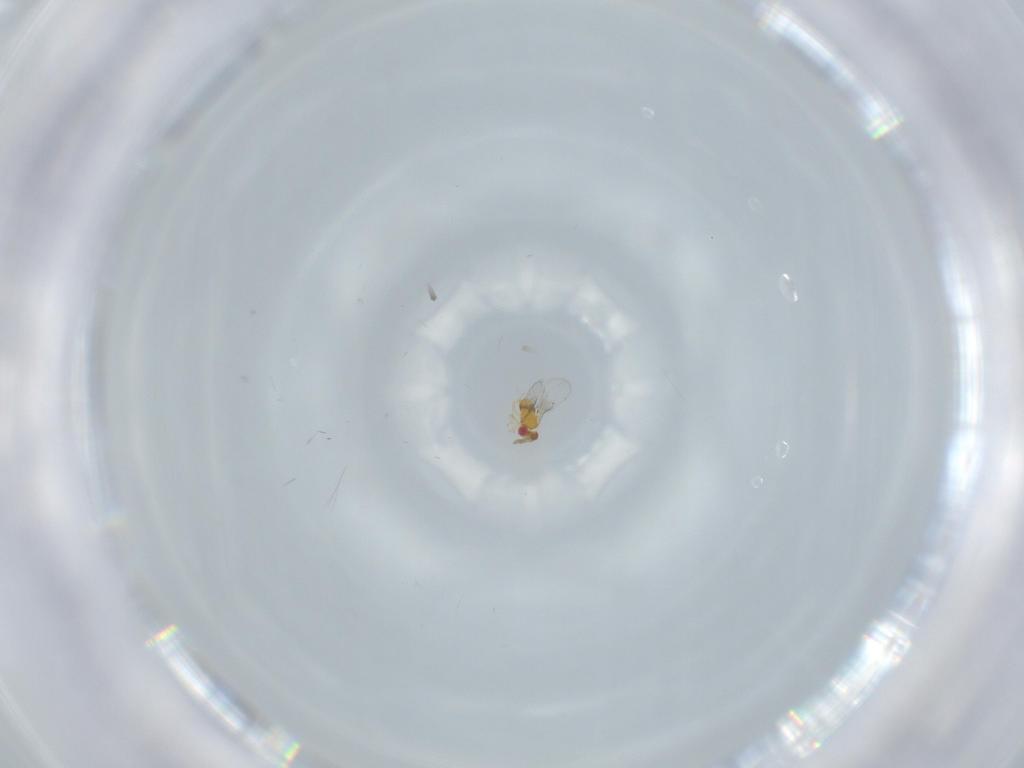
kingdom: Animalia
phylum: Arthropoda
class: Insecta
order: Hymenoptera
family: Trichogrammatidae
